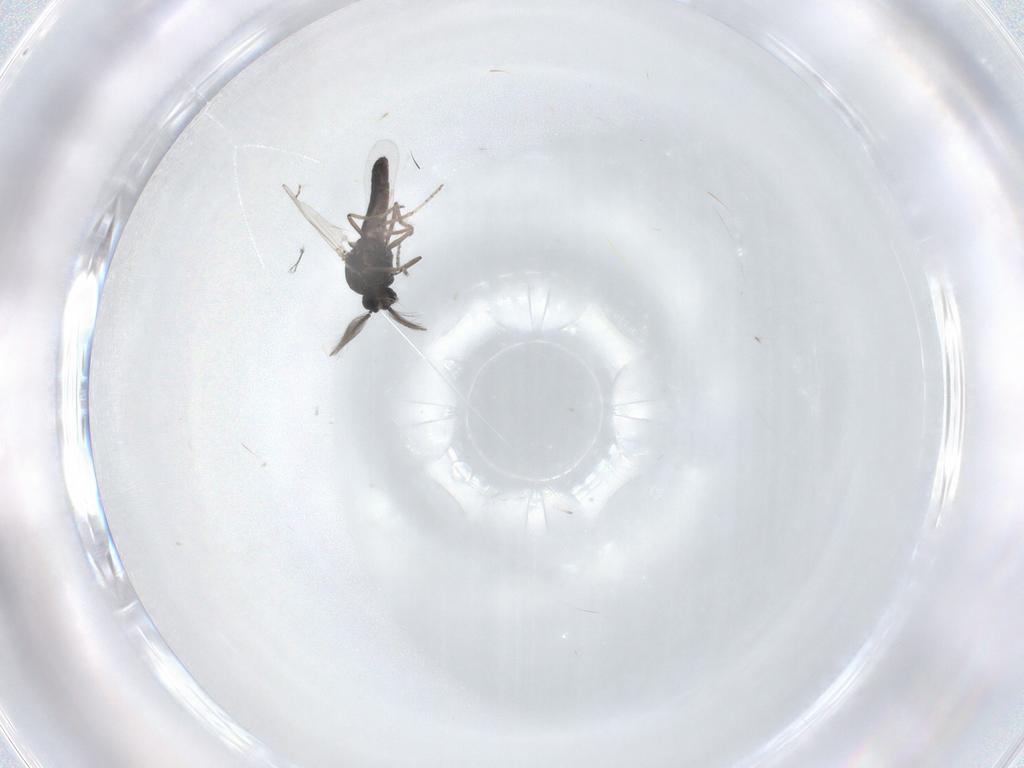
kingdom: Animalia
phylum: Arthropoda
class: Insecta
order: Diptera
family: Ceratopogonidae
